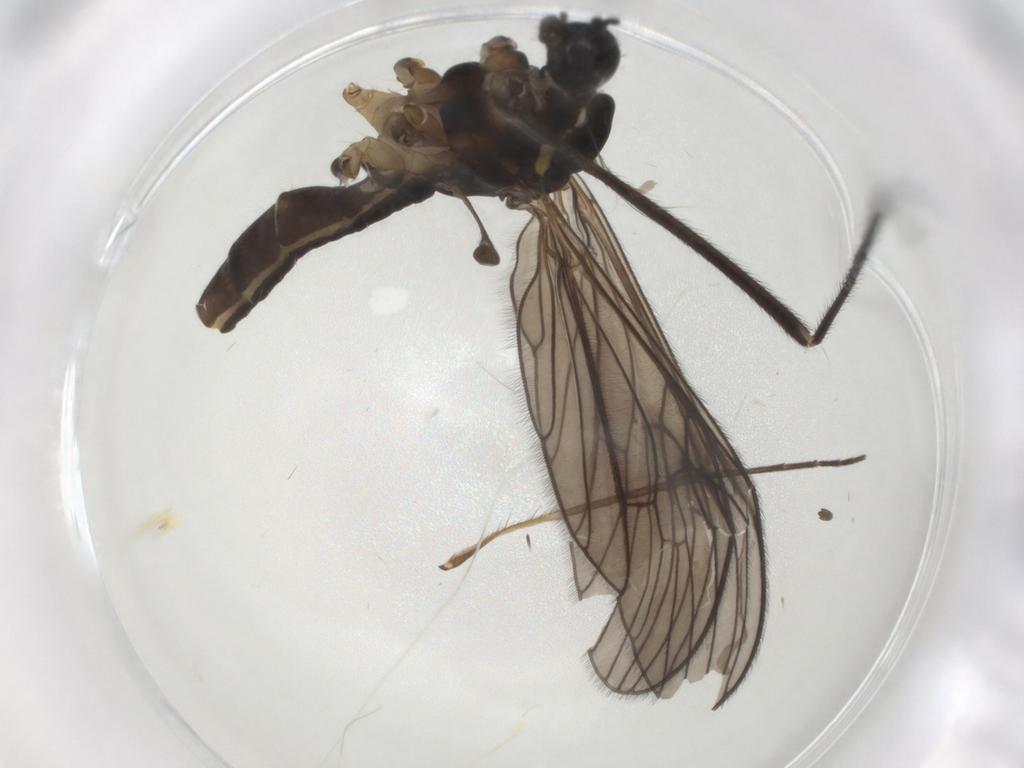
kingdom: Animalia
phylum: Arthropoda
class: Insecta
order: Diptera
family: Limoniidae
